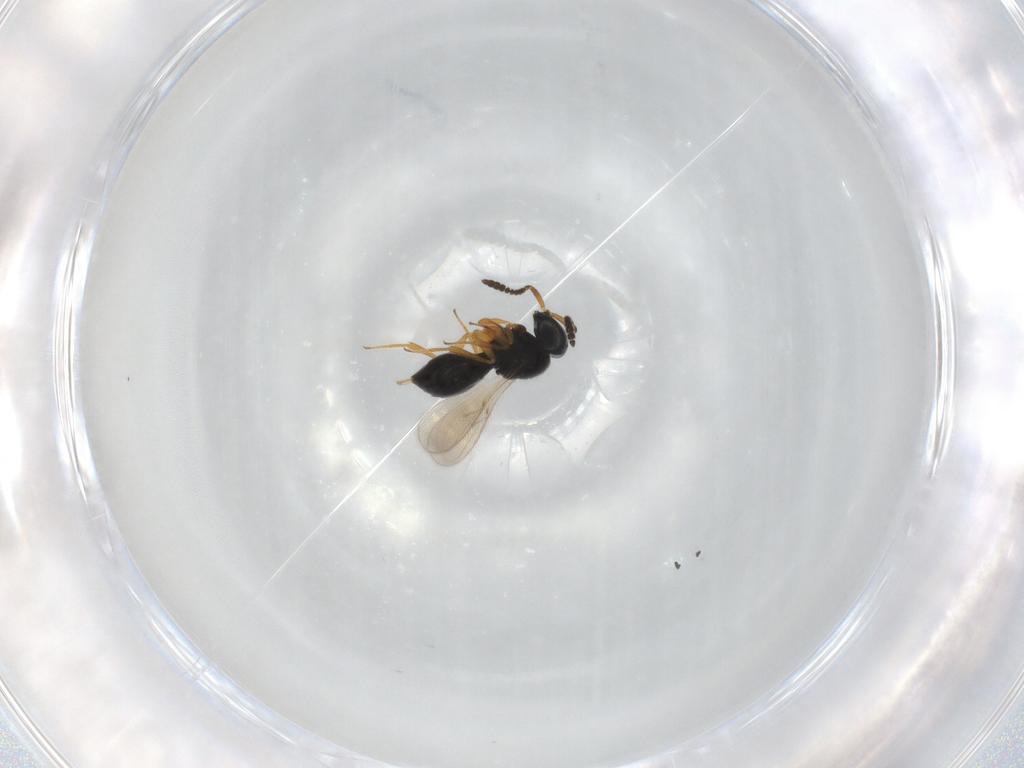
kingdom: Animalia
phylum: Arthropoda
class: Insecta
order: Hymenoptera
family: Scelionidae
